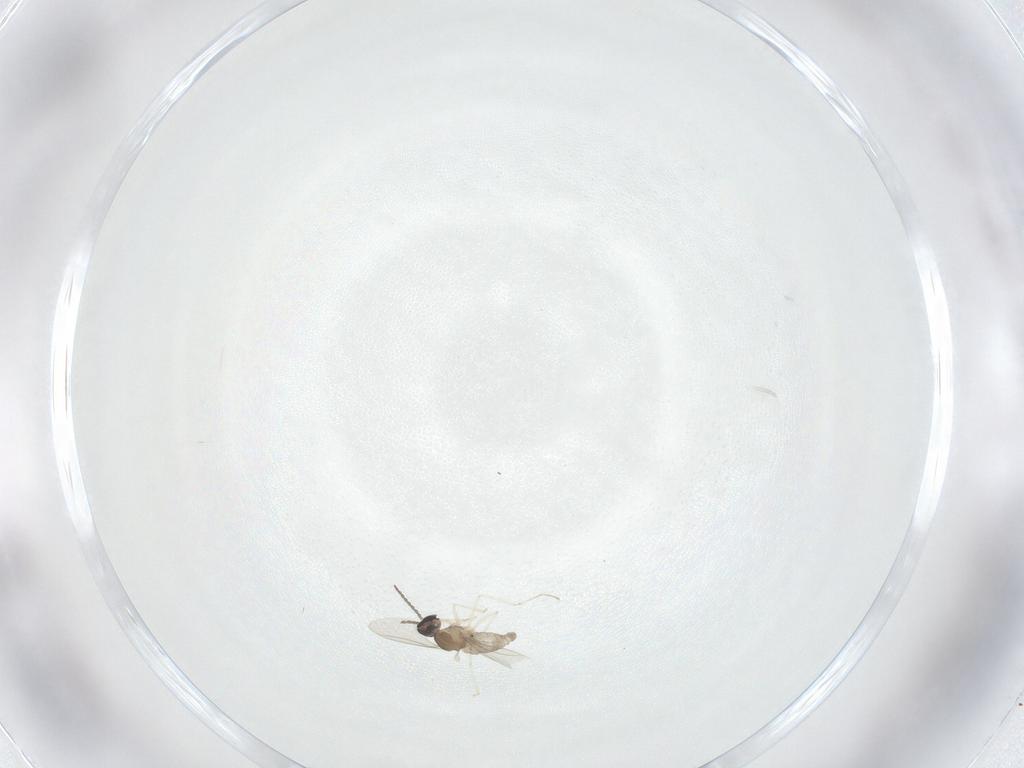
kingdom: Animalia
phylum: Arthropoda
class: Insecta
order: Diptera
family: Cecidomyiidae
